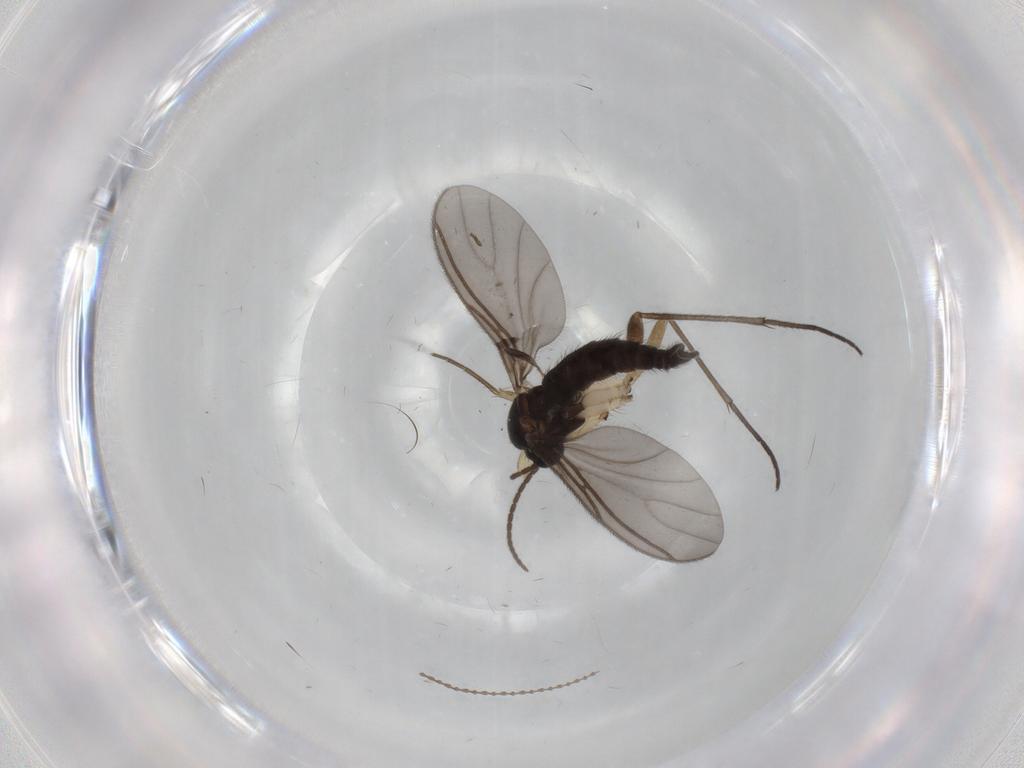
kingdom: Animalia
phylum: Arthropoda
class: Insecta
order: Diptera
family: Sciaridae
